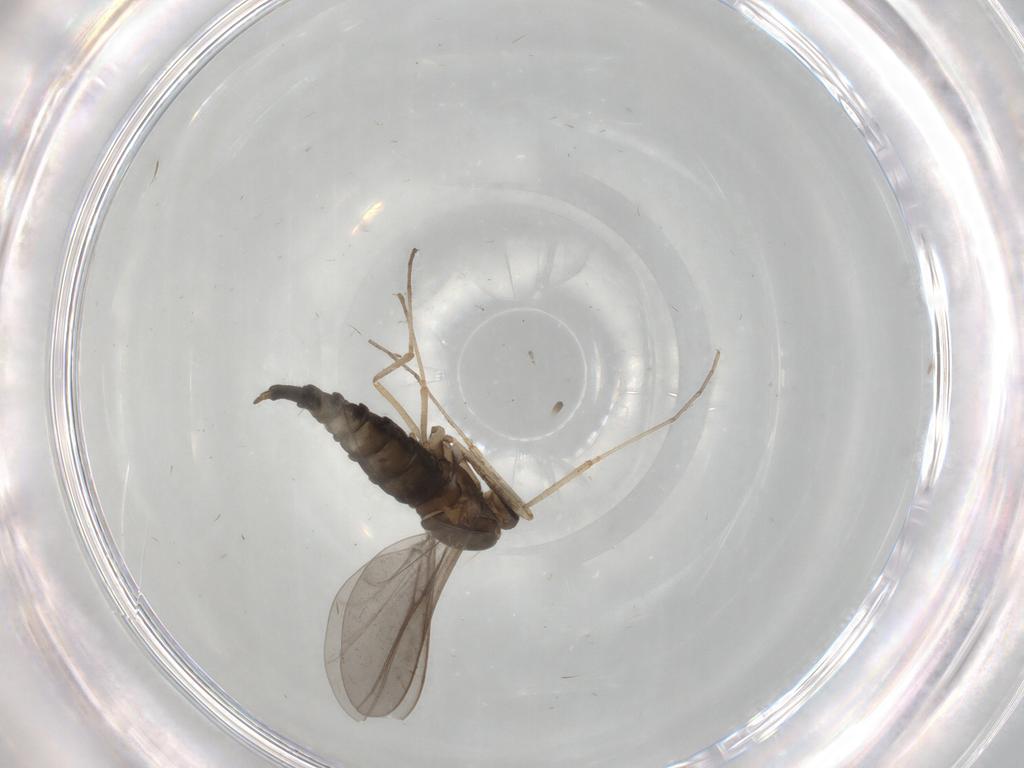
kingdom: Animalia
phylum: Arthropoda
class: Insecta
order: Diptera
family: Cecidomyiidae
